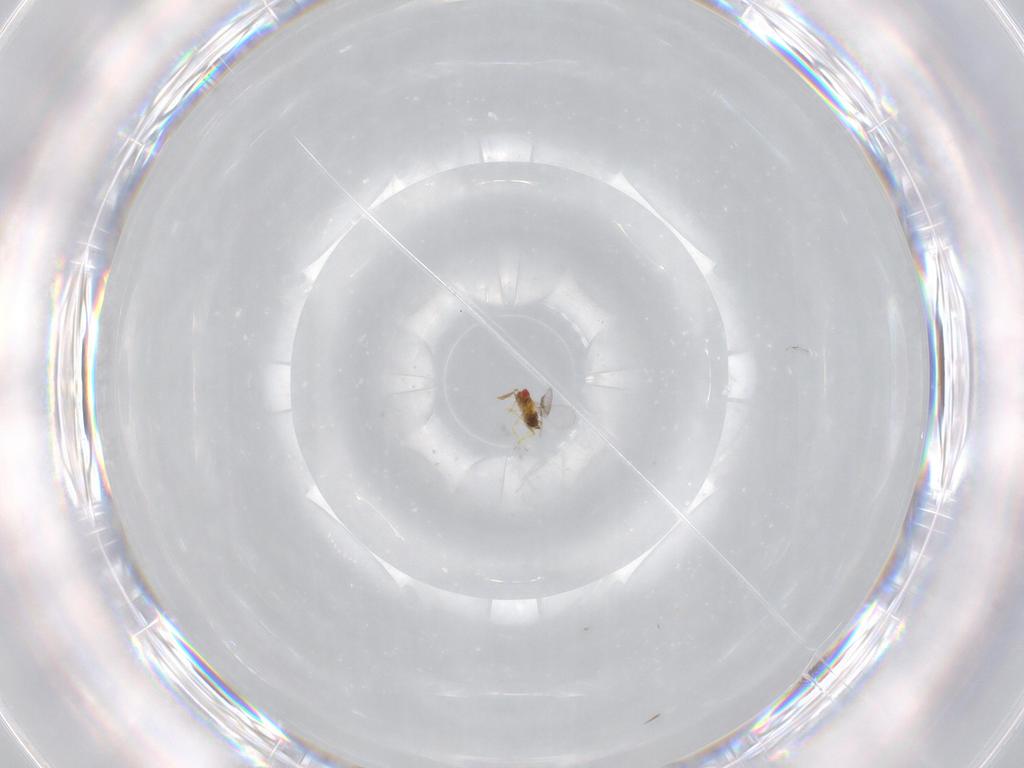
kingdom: Animalia
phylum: Arthropoda
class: Insecta
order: Hymenoptera
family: Trichogrammatidae
